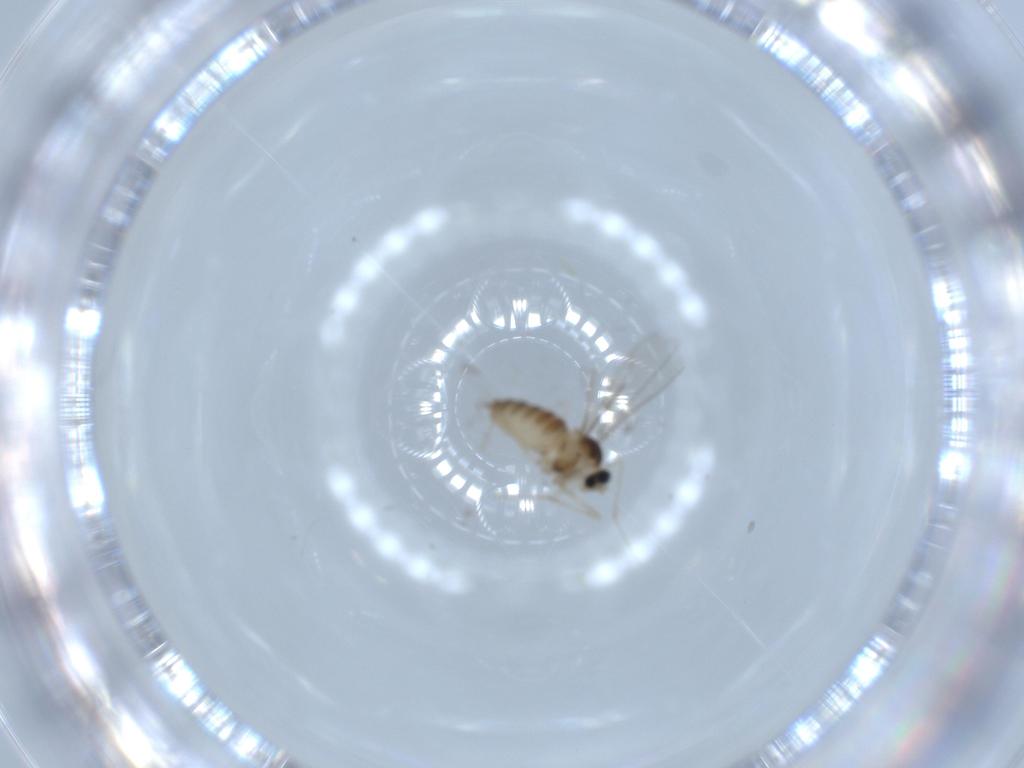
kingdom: Animalia
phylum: Arthropoda
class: Insecta
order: Diptera
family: Cecidomyiidae
